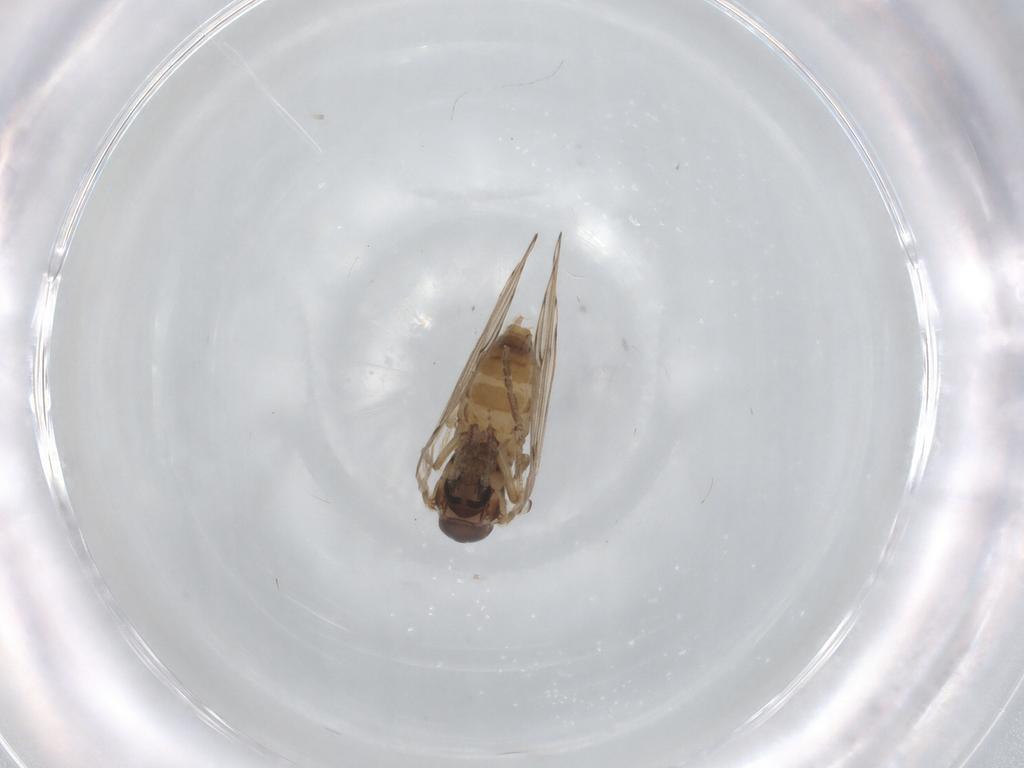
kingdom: Animalia
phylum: Arthropoda
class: Insecta
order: Diptera
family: Psychodidae
